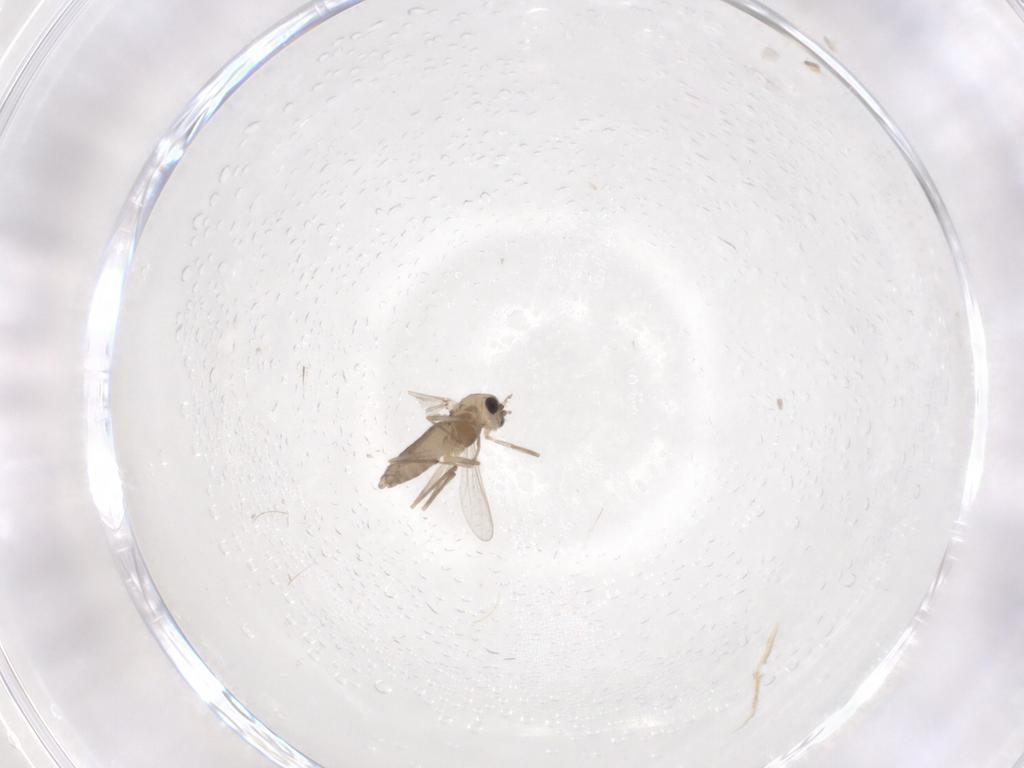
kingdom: Animalia
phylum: Arthropoda
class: Insecta
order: Diptera
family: Chironomidae
